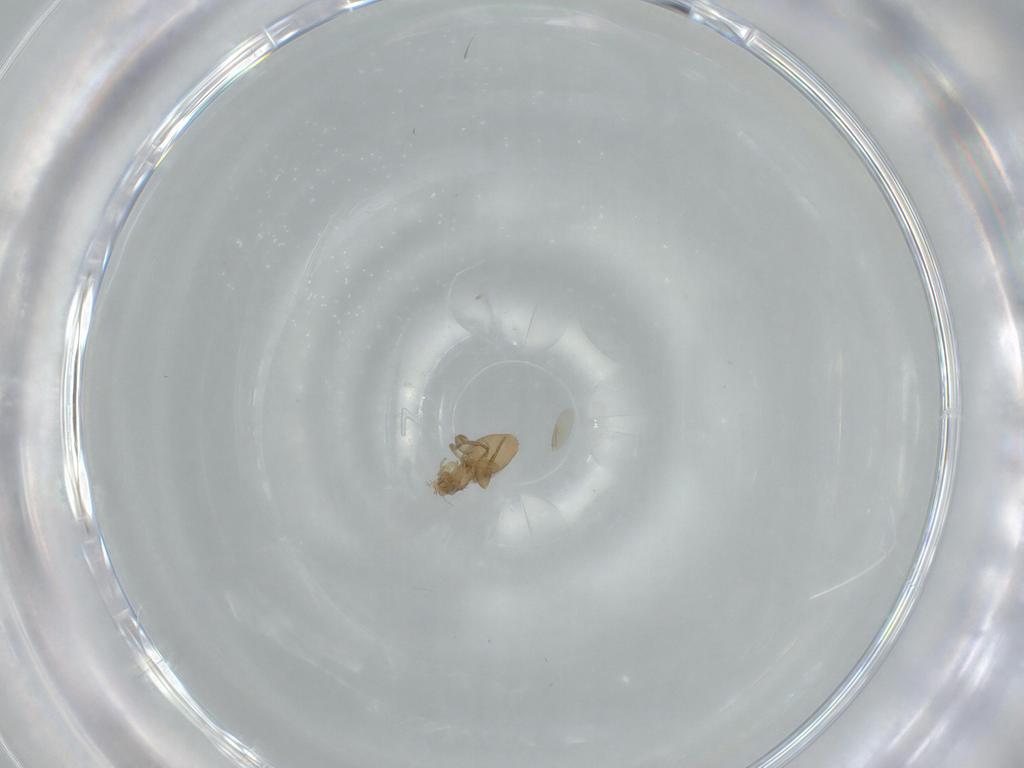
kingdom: Animalia
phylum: Arthropoda
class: Insecta
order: Diptera
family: Phoridae
